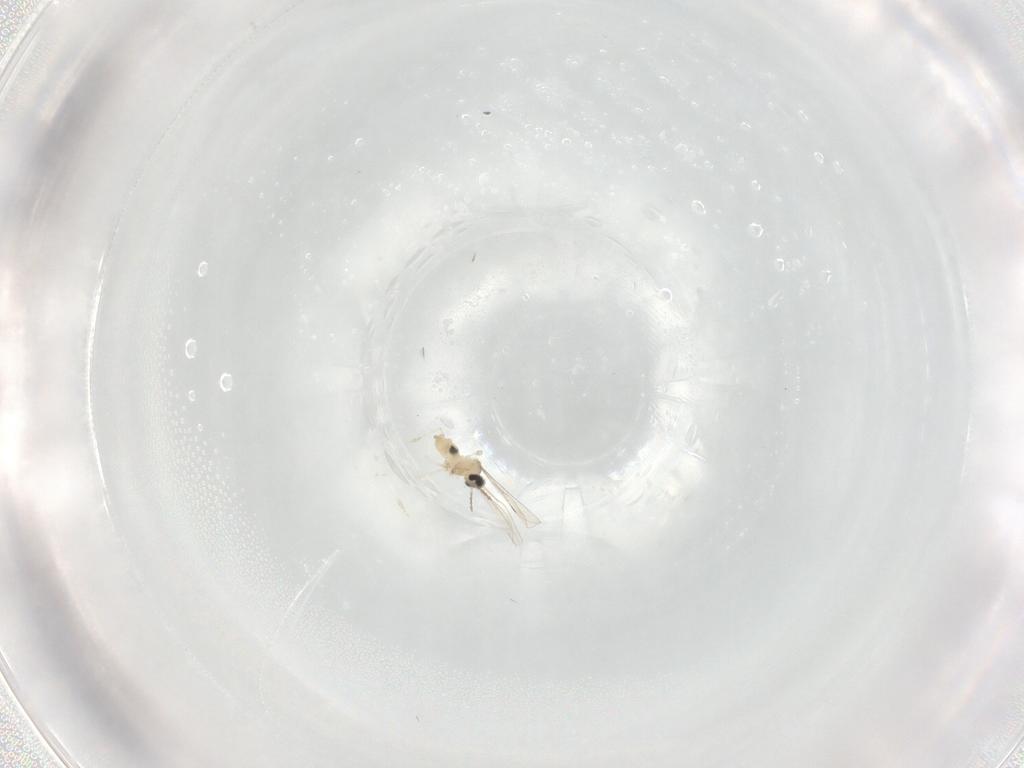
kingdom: Animalia
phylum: Arthropoda
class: Insecta
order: Diptera
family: Cecidomyiidae
